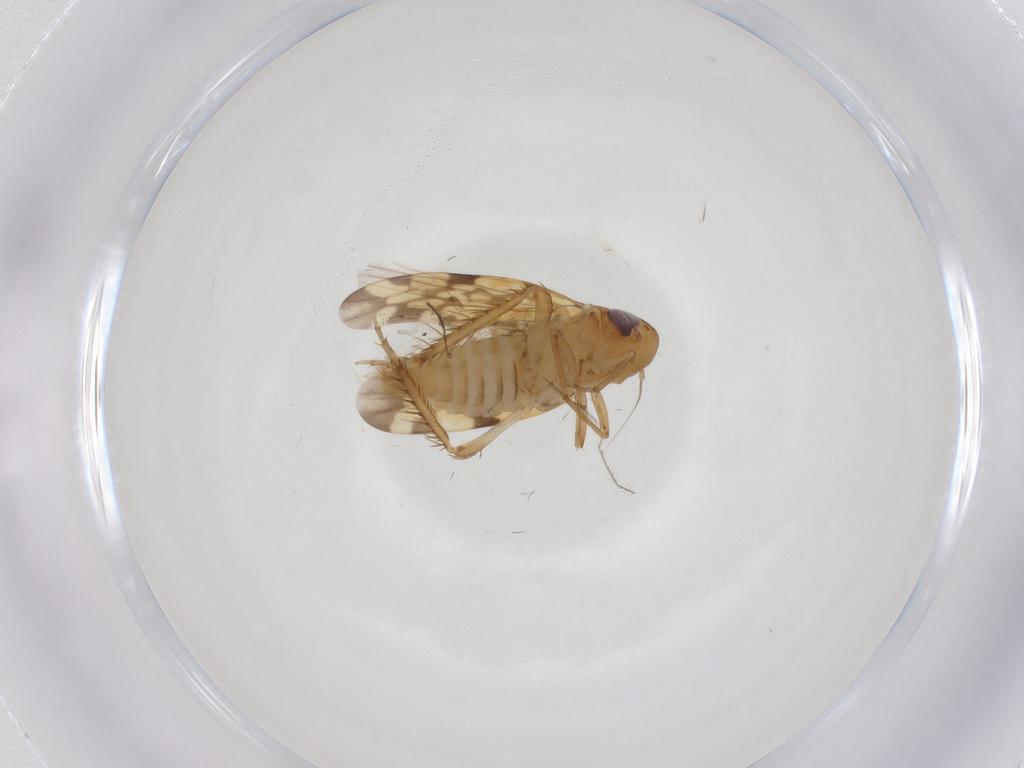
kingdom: Animalia
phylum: Arthropoda
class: Insecta
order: Hemiptera
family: Cicadellidae
